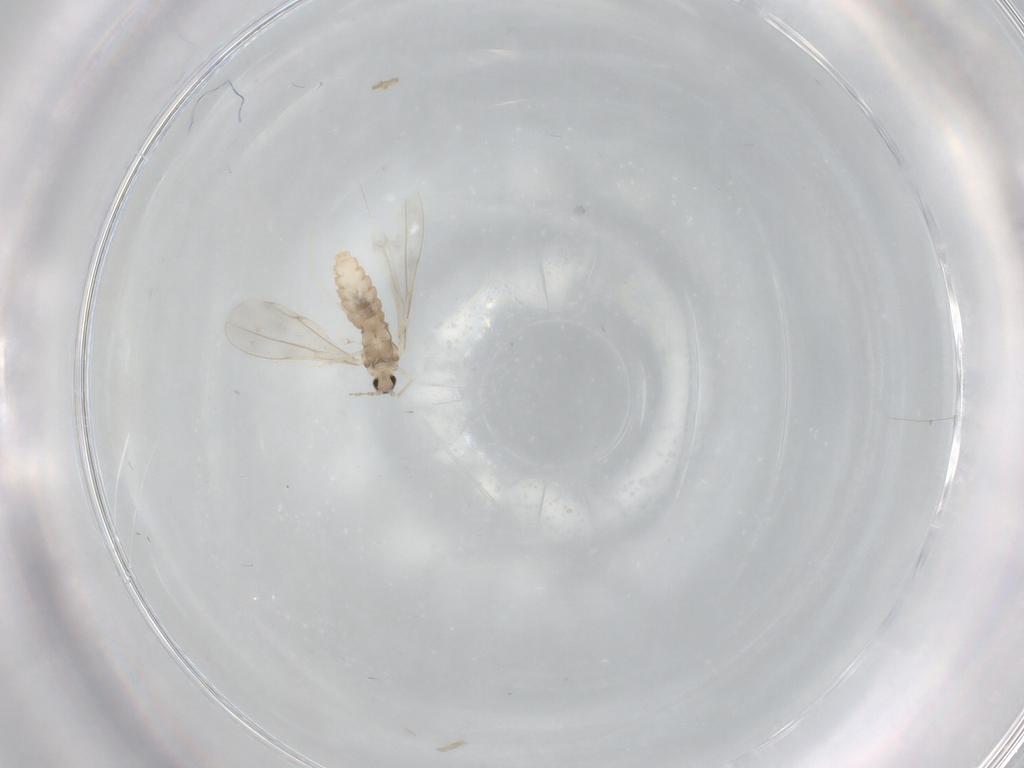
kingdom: Animalia
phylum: Arthropoda
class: Insecta
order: Diptera
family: Cecidomyiidae
